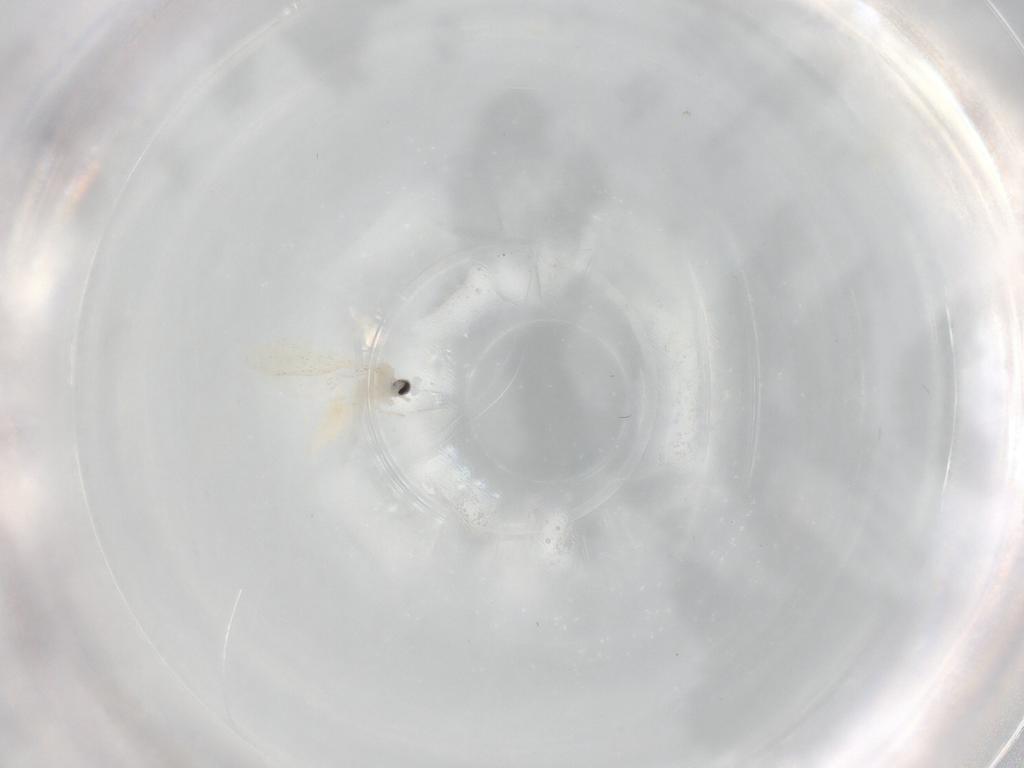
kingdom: Animalia
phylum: Arthropoda
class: Insecta
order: Diptera
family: Cecidomyiidae
